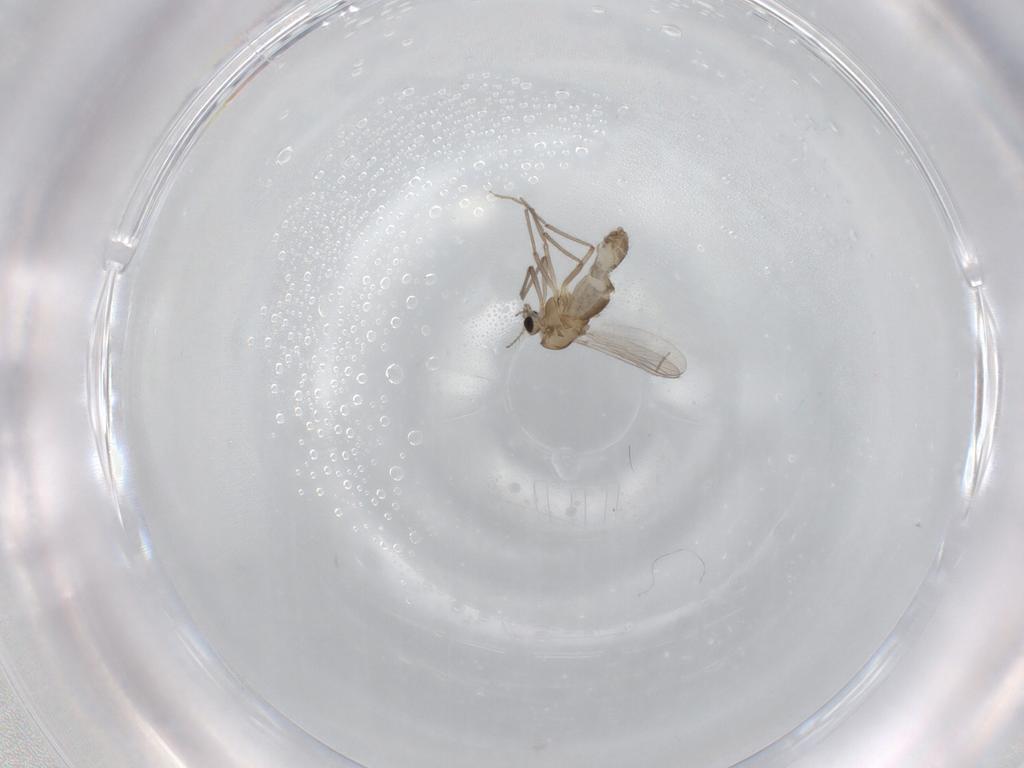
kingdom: Animalia
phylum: Arthropoda
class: Insecta
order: Diptera
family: Chironomidae
